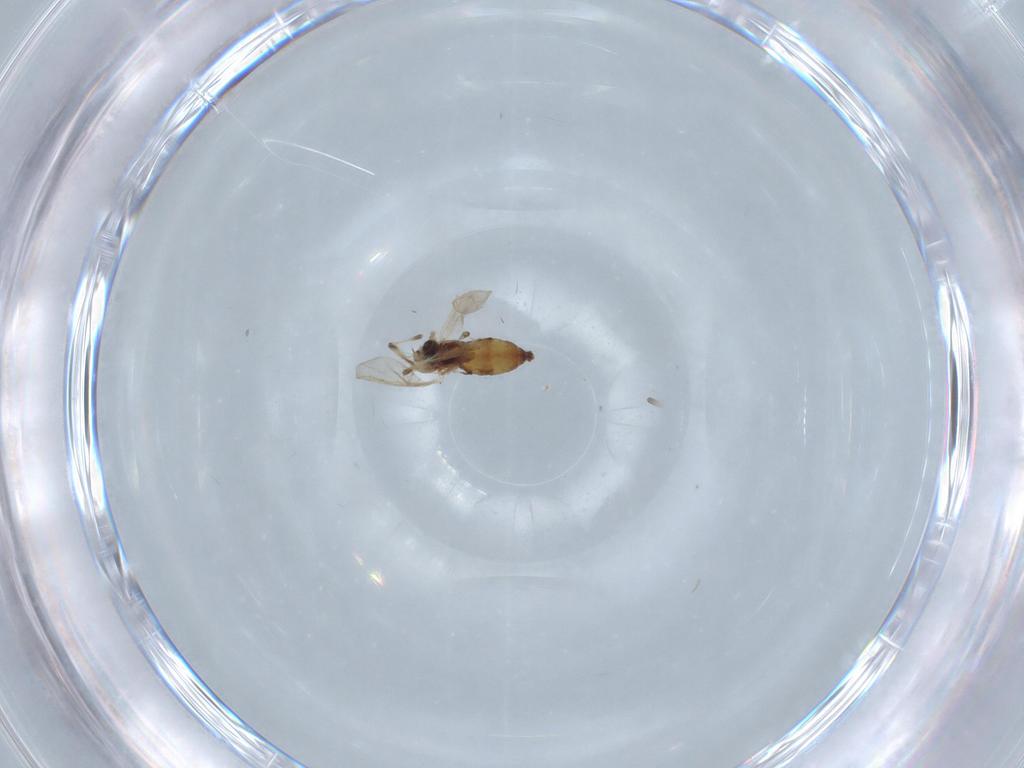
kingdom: Animalia
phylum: Arthropoda
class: Insecta
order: Diptera
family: Chironomidae
